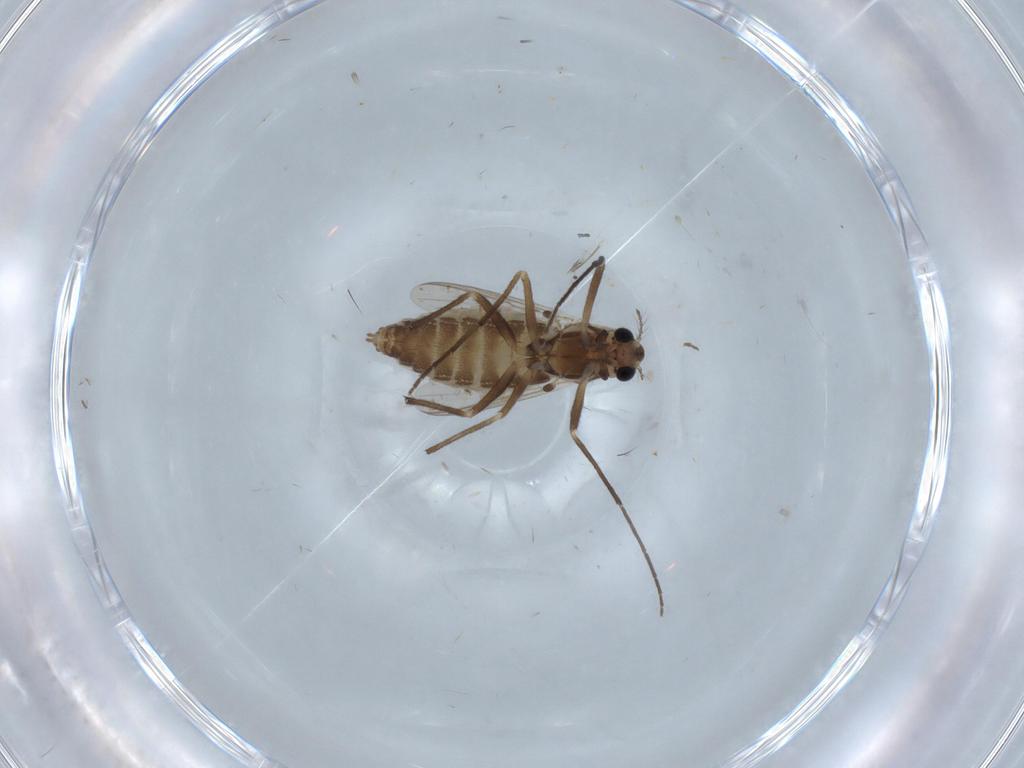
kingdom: Animalia
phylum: Arthropoda
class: Insecta
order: Diptera
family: Chironomidae
